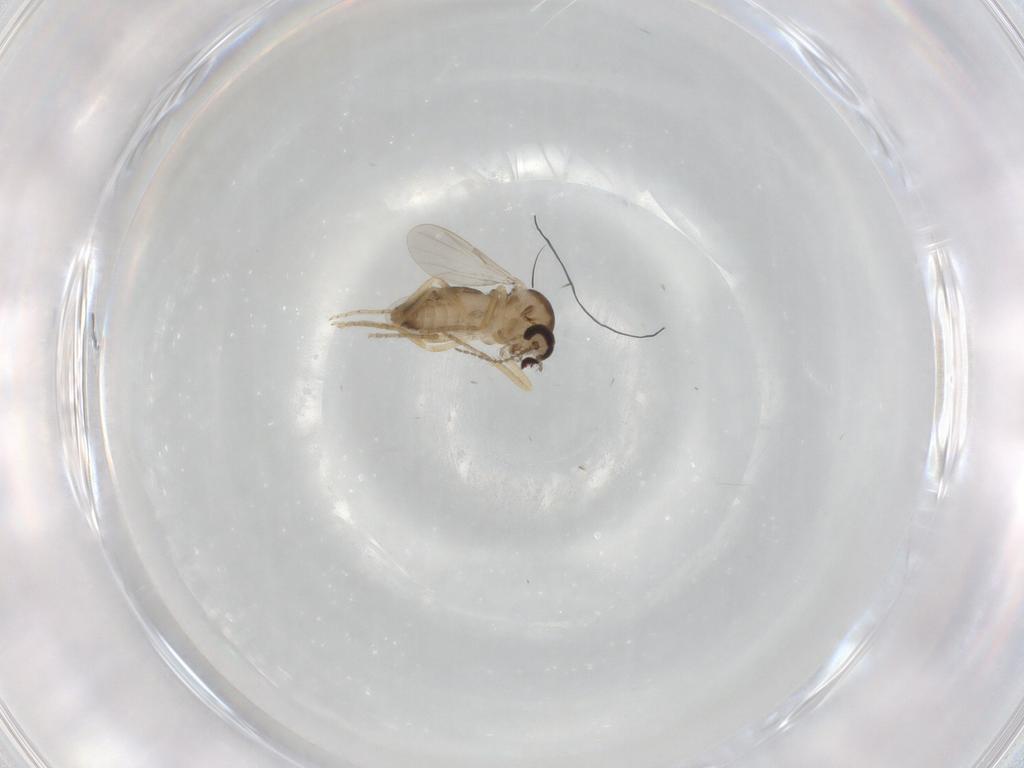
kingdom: Animalia
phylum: Arthropoda
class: Insecta
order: Diptera
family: Ceratopogonidae
